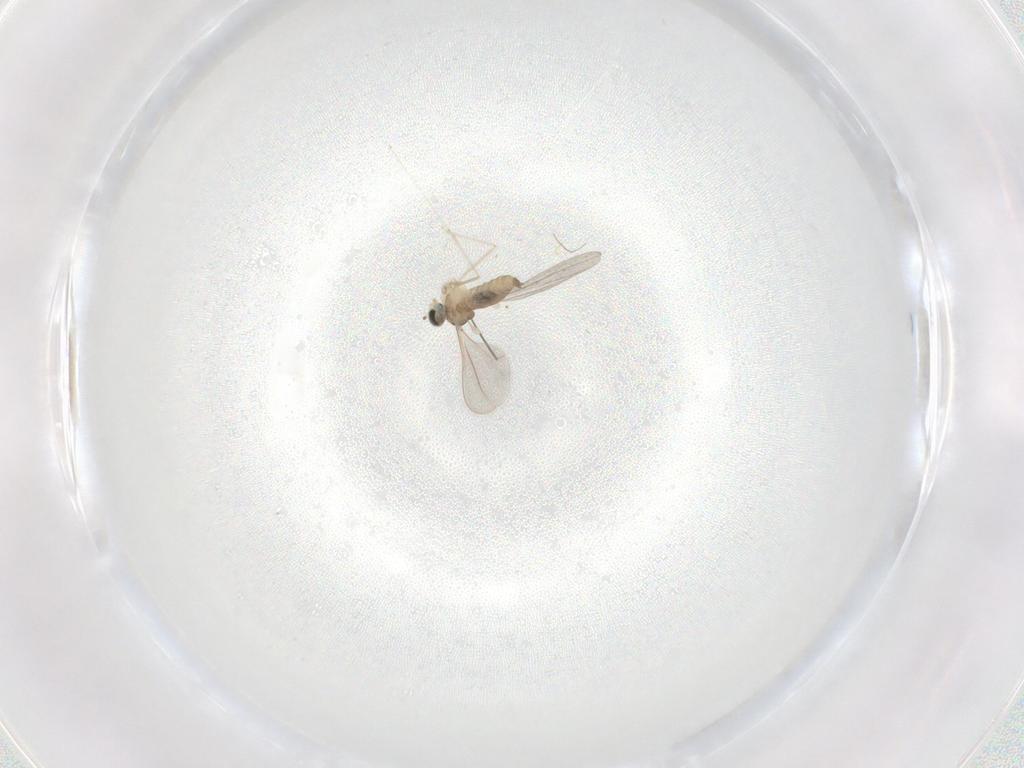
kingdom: Animalia
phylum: Arthropoda
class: Insecta
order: Diptera
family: Cecidomyiidae
